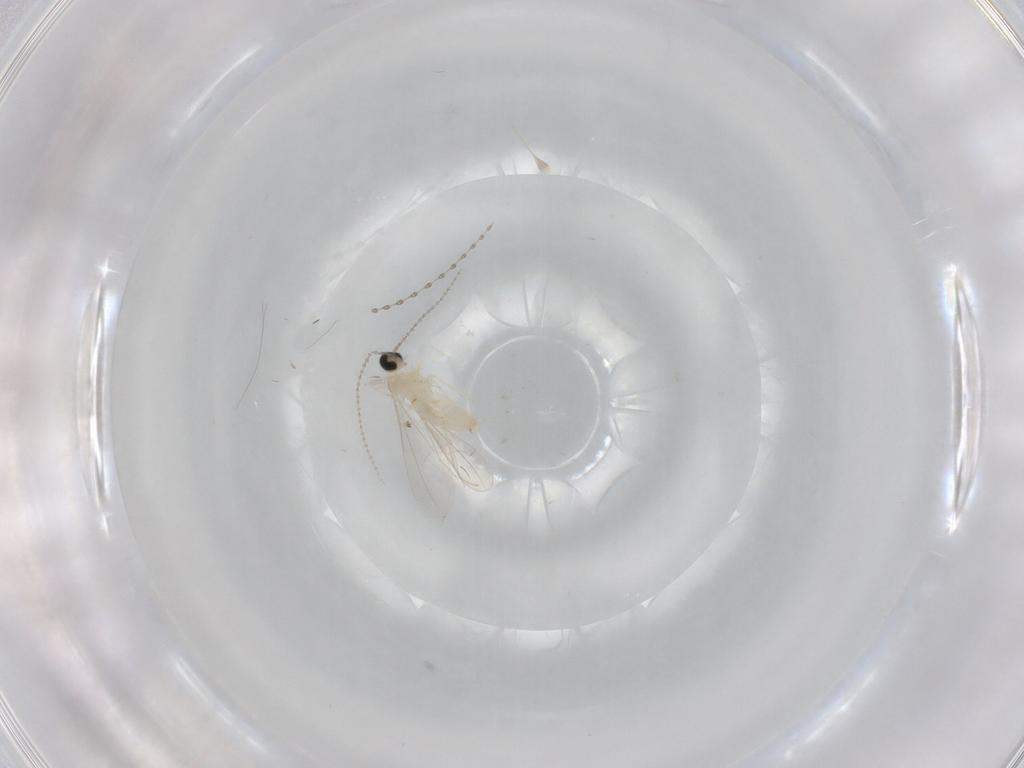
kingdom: Animalia
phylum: Arthropoda
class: Insecta
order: Diptera
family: Cecidomyiidae
